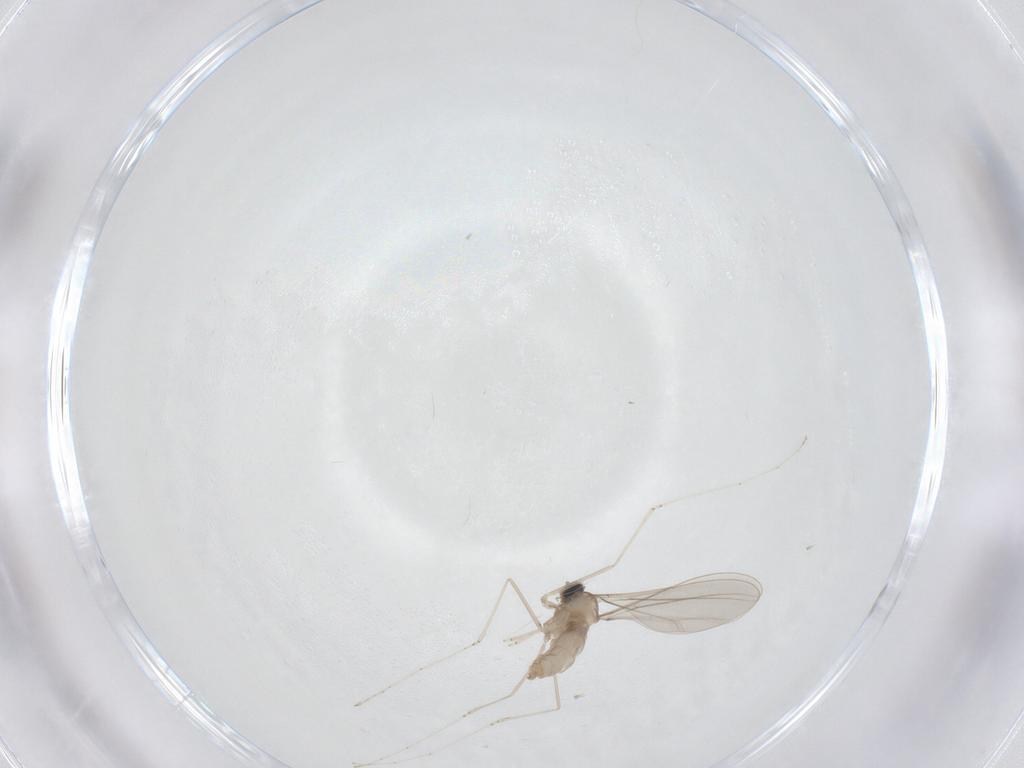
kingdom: Animalia
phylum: Arthropoda
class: Insecta
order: Diptera
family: Cecidomyiidae
